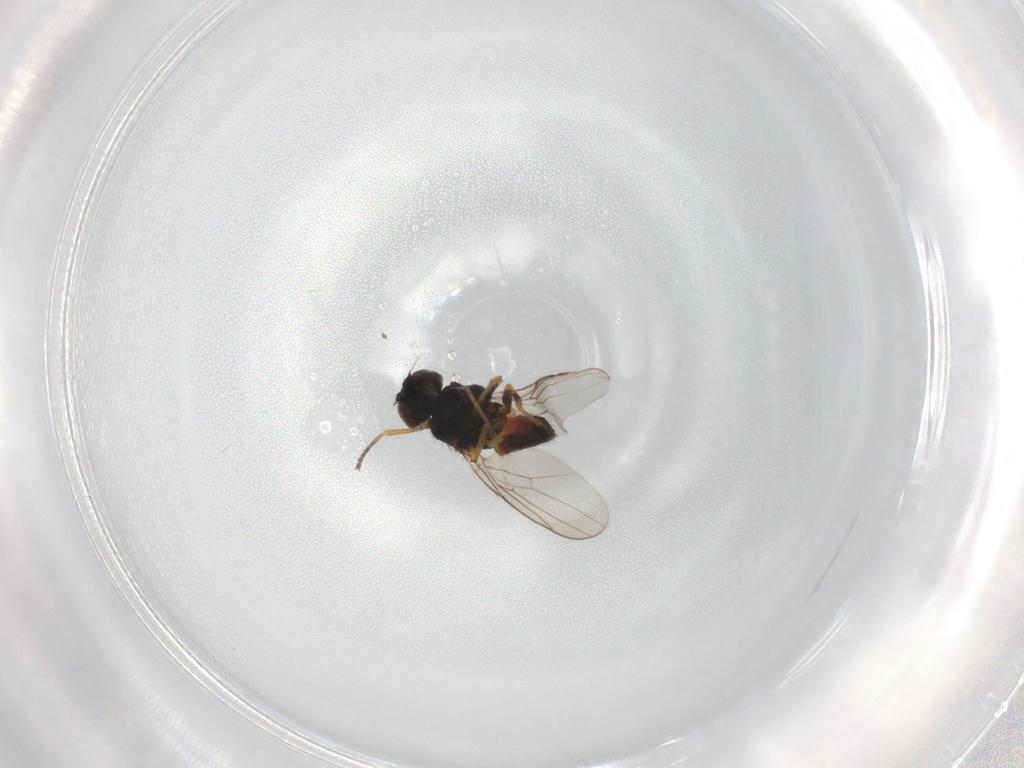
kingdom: Animalia
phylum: Arthropoda
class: Insecta
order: Diptera
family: Chloropidae
